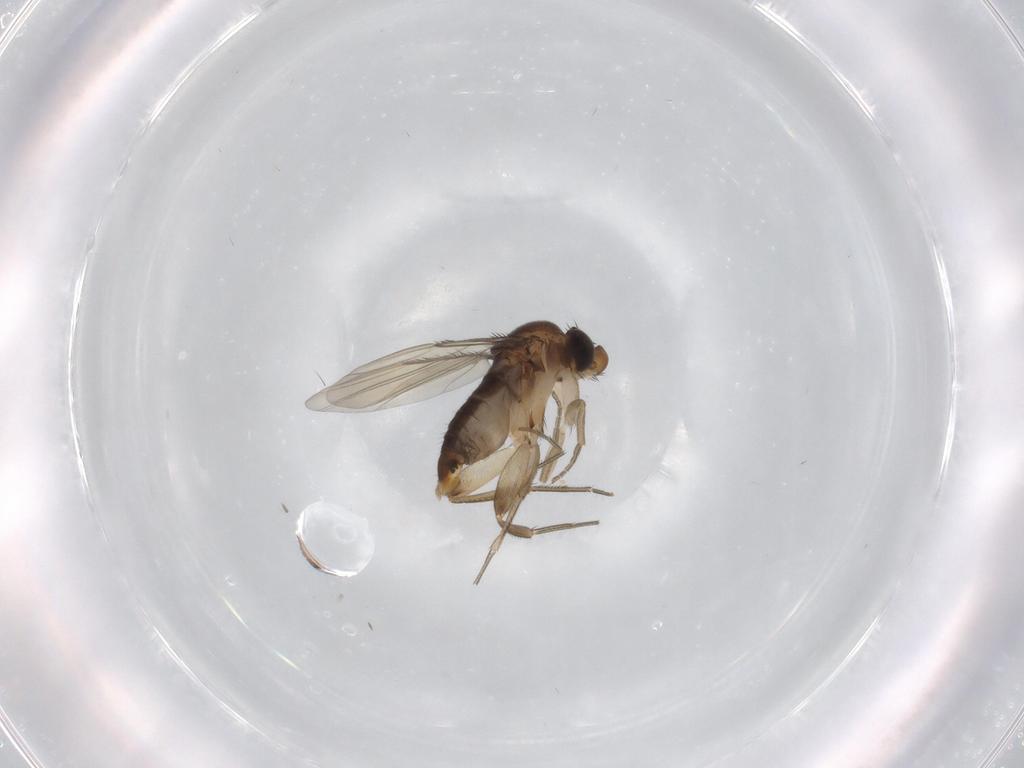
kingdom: Animalia
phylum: Arthropoda
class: Insecta
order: Diptera
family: Phoridae
